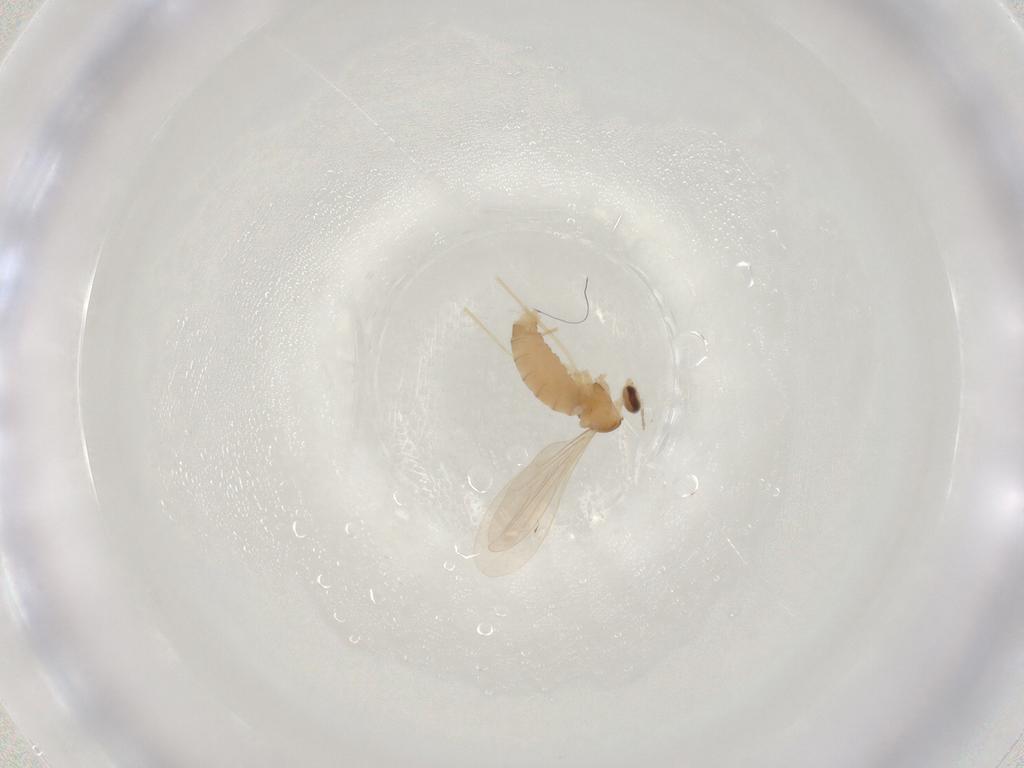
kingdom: Animalia
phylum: Arthropoda
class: Insecta
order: Diptera
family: Cecidomyiidae
